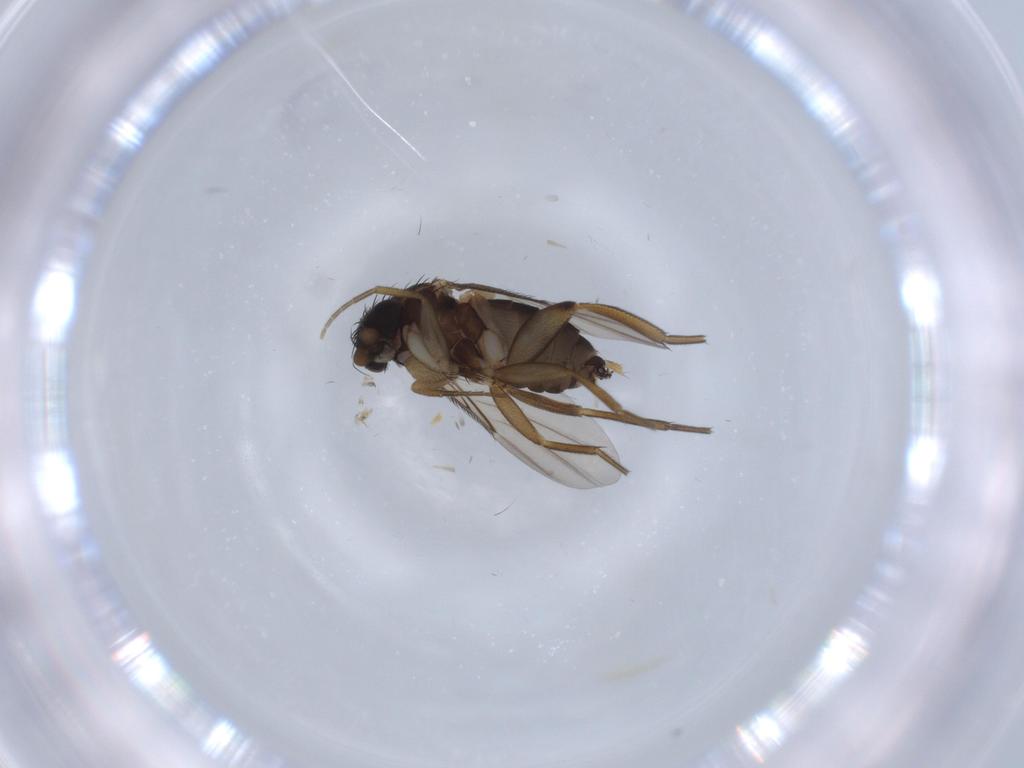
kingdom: Animalia
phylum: Arthropoda
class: Insecta
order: Diptera
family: Phoridae
